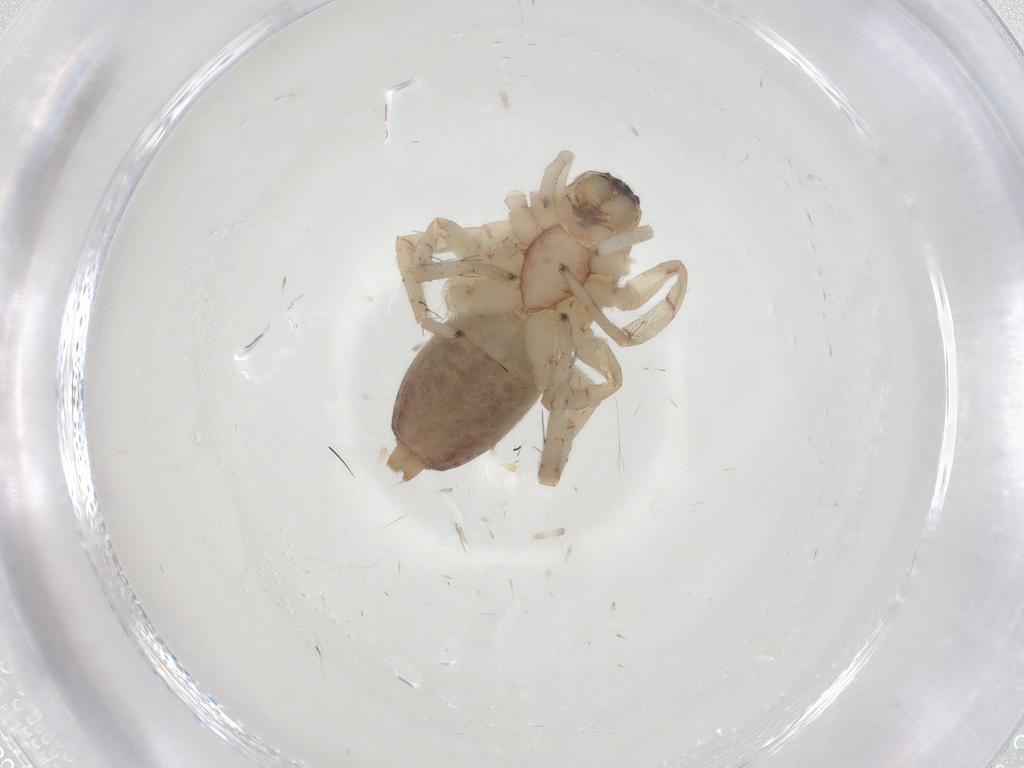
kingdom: Animalia
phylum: Arthropoda
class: Arachnida
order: Araneae
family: Clubionidae
